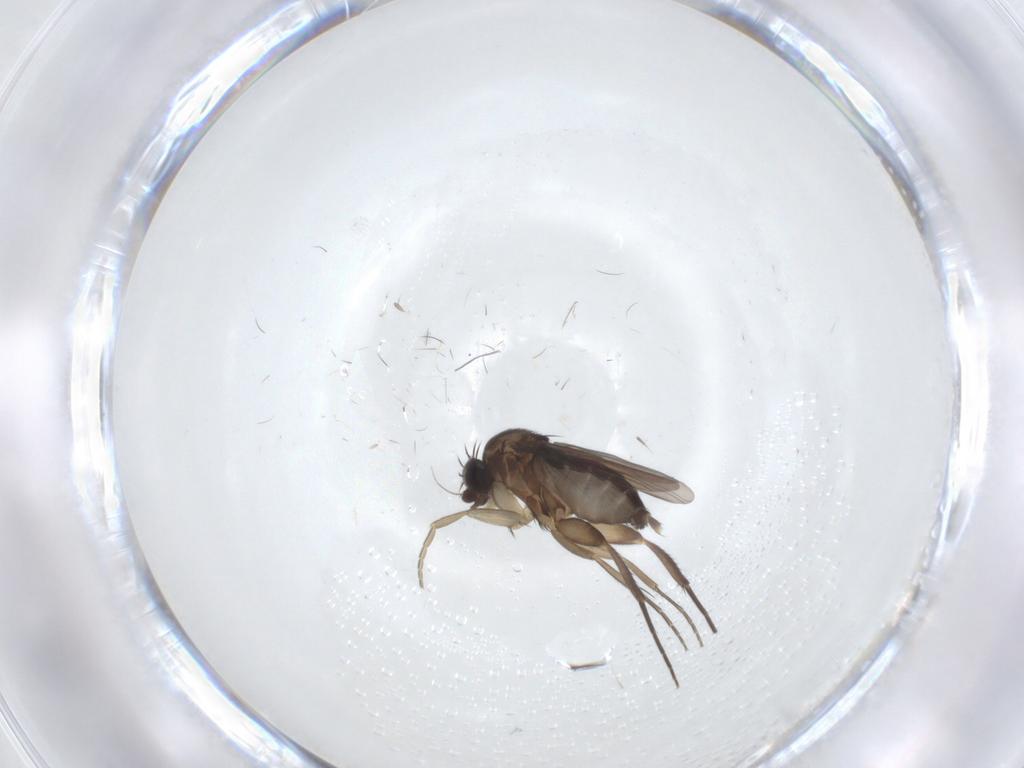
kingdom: Animalia
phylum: Arthropoda
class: Insecta
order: Diptera
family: Phoridae
